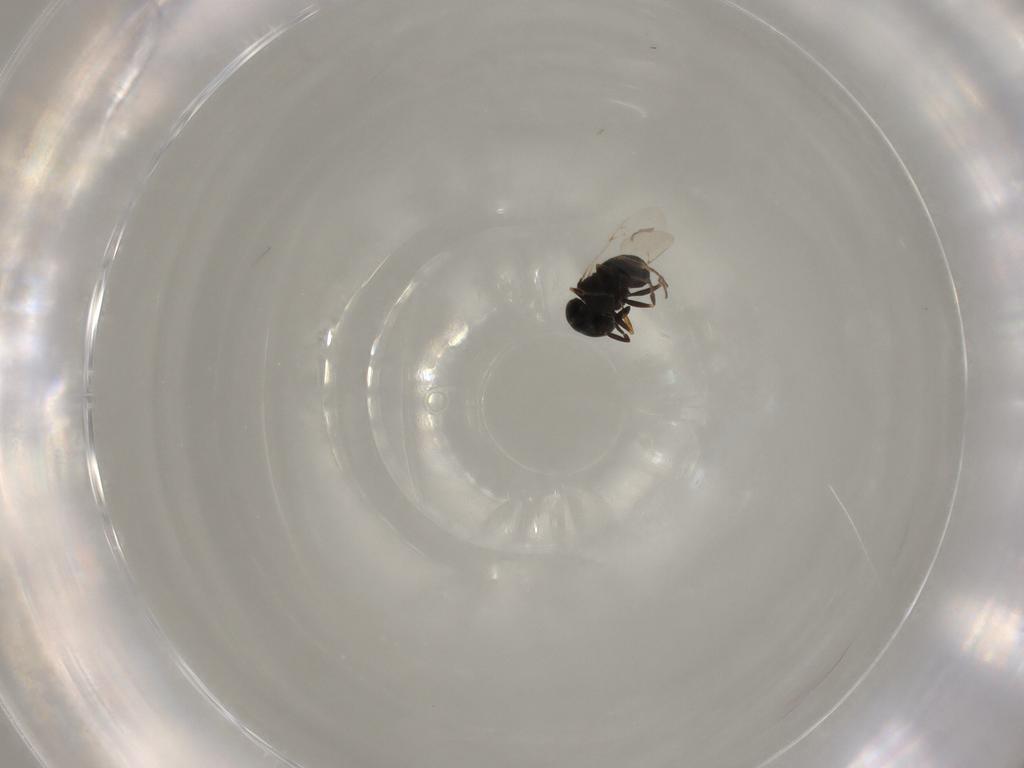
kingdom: Animalia
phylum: Arthropoda
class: Insecta
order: Hymenoptera
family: Scelionidae
